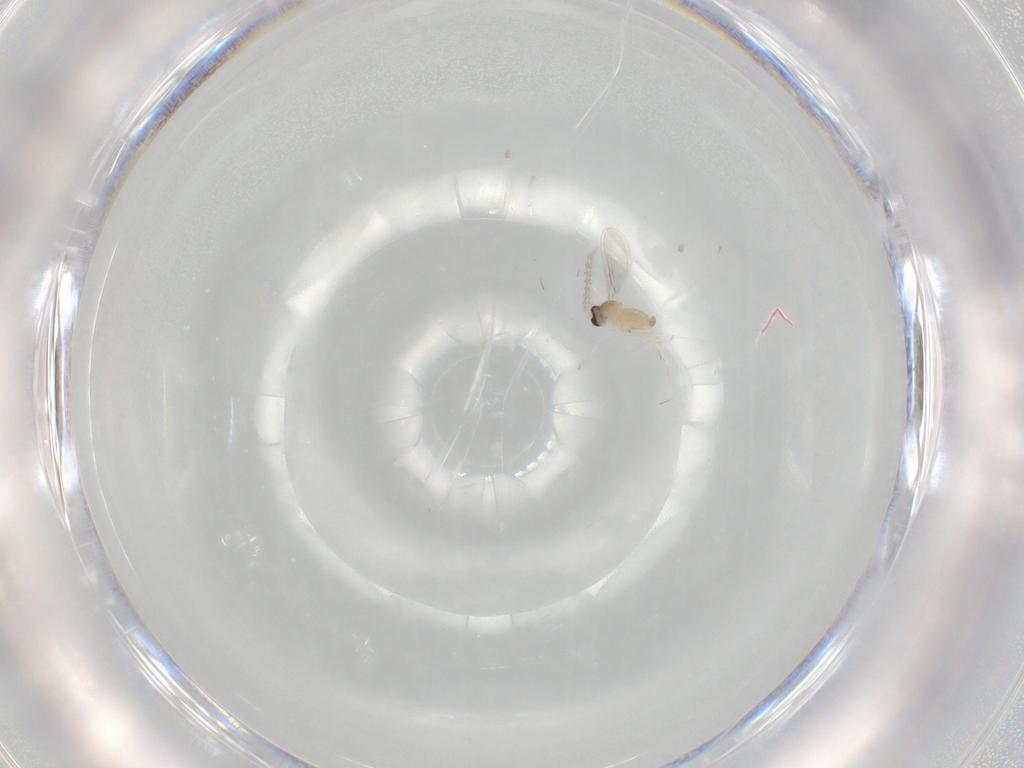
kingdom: Animalia
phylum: Arthropoda
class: Insecta
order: Diptera
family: Cecidomyiidae
